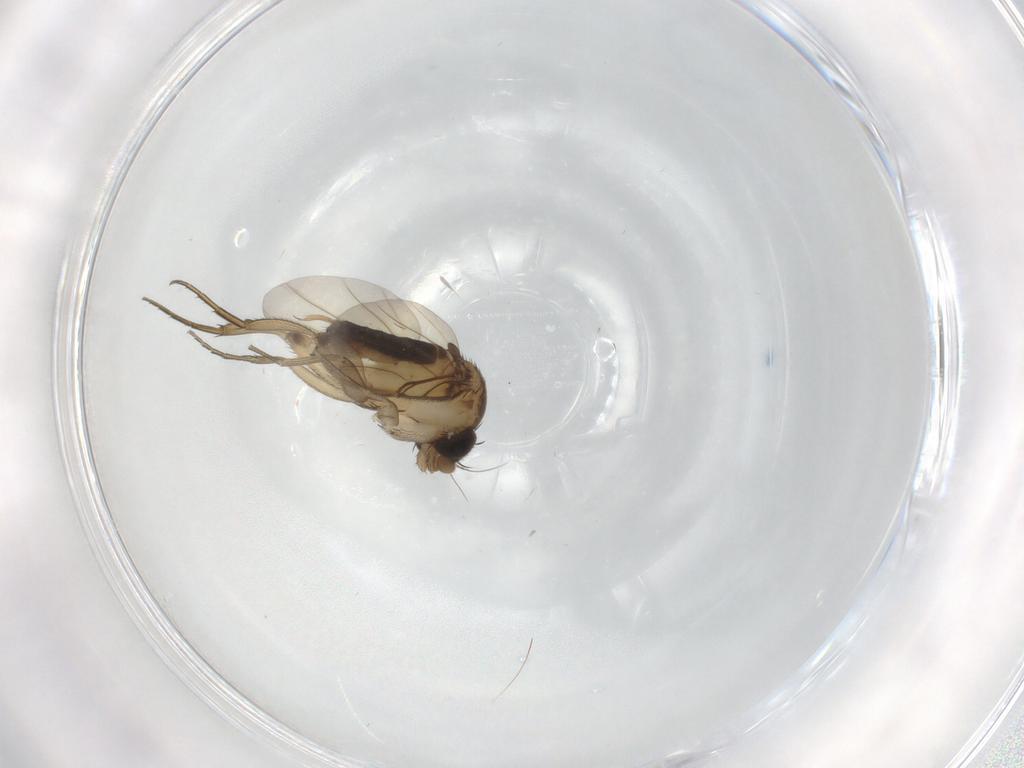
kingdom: Animalia
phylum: Arthropoda
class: Insecta
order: Diptera
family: Phoridae
